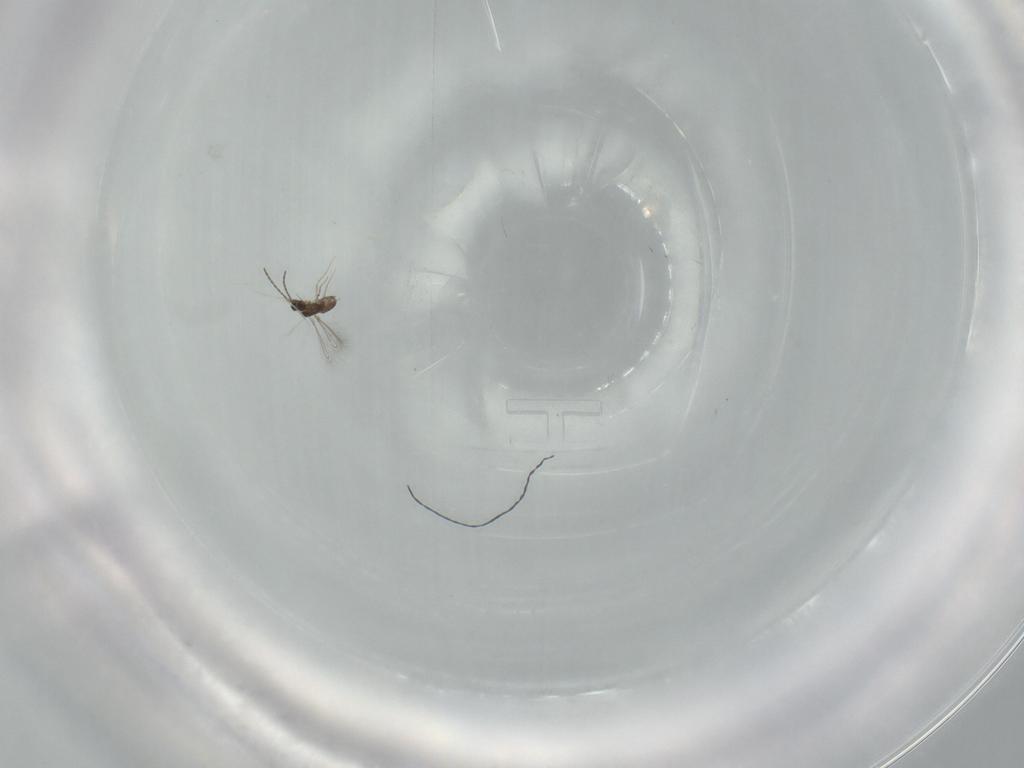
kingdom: Animalia
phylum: Arthropoda
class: Insecta
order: Hymenoptera
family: Mymaridae
